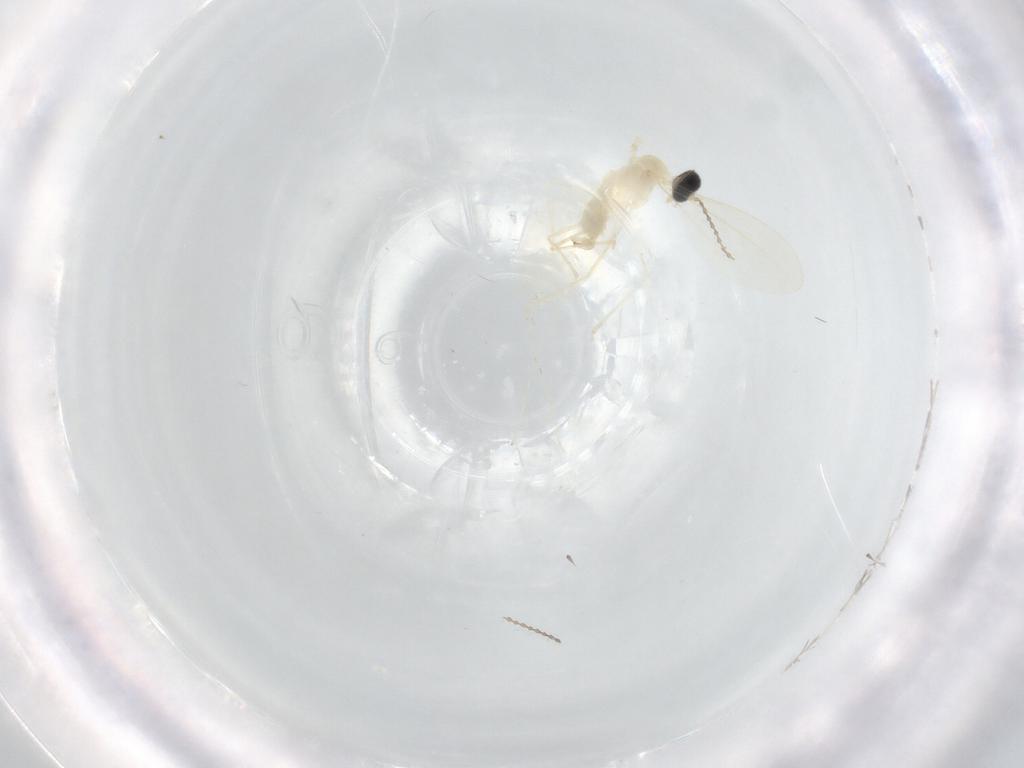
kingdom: Animalia
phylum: Arthropoda
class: Insecta
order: Diptera
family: Cecidomyiidae
